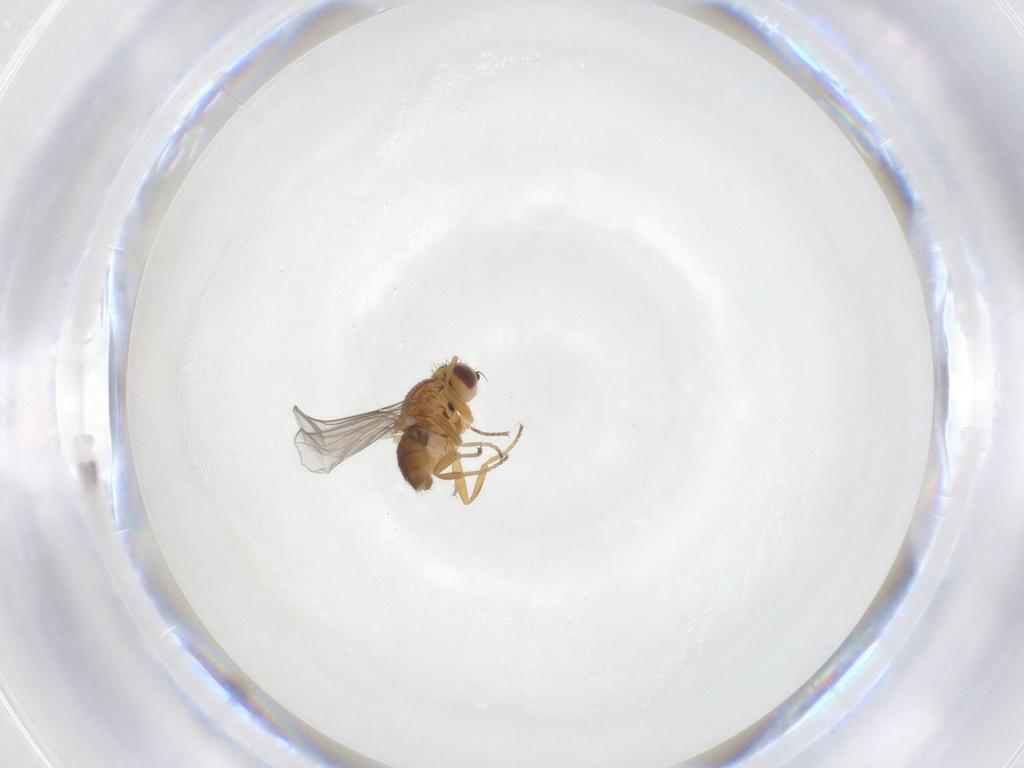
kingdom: Animalia
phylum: Arthropoda
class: Insecta
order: Diptera
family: Chloropidae
